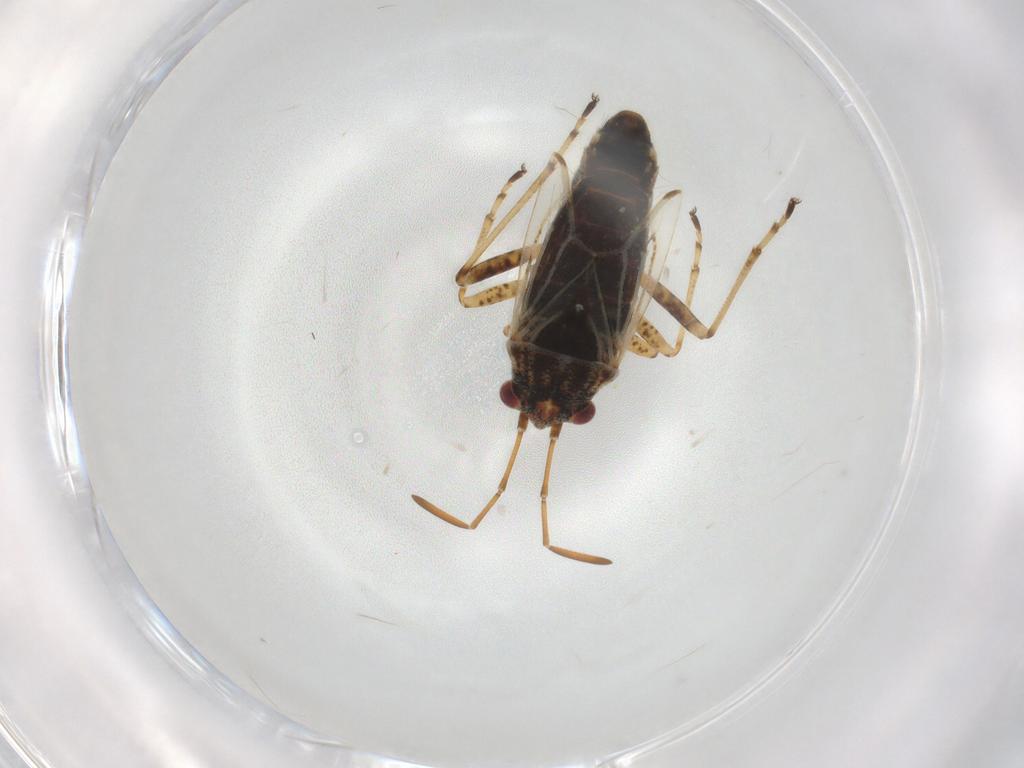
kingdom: Animalia
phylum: Arthropoda
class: Insecta
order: Hemiptera
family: Lygaeidae
